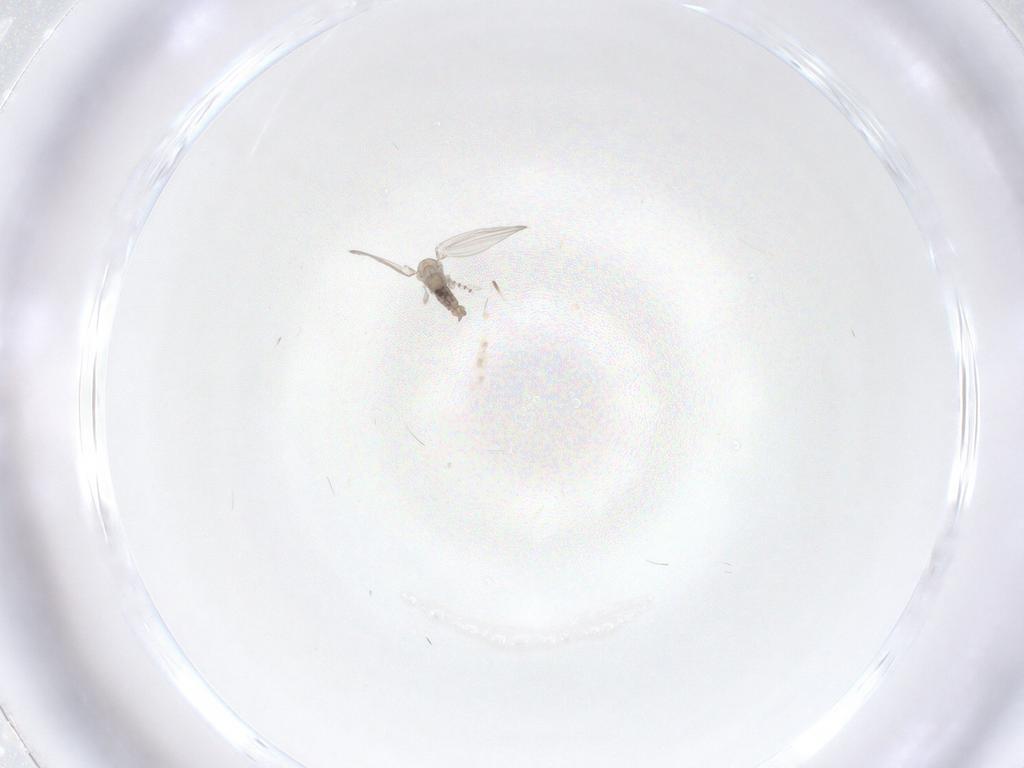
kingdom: Animalia
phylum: Arthropoda
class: Insecta
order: Diptera
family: Psychodidae
